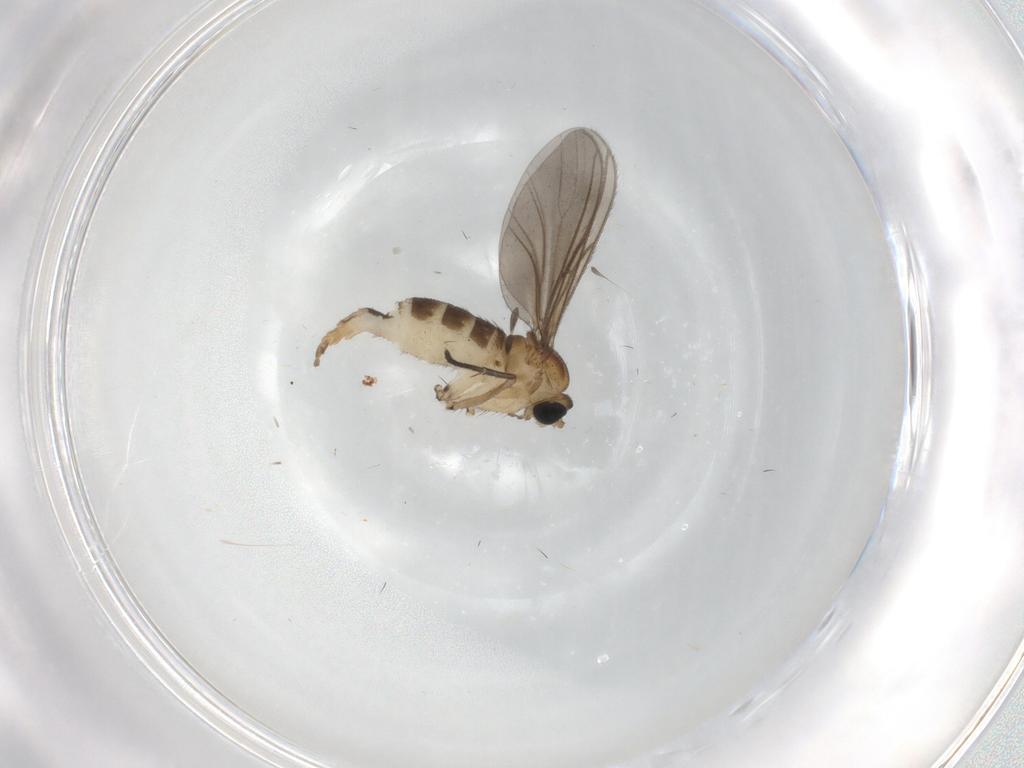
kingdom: Animalia
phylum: Arthropoda
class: Insecta
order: Diptera
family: Sciaridae
